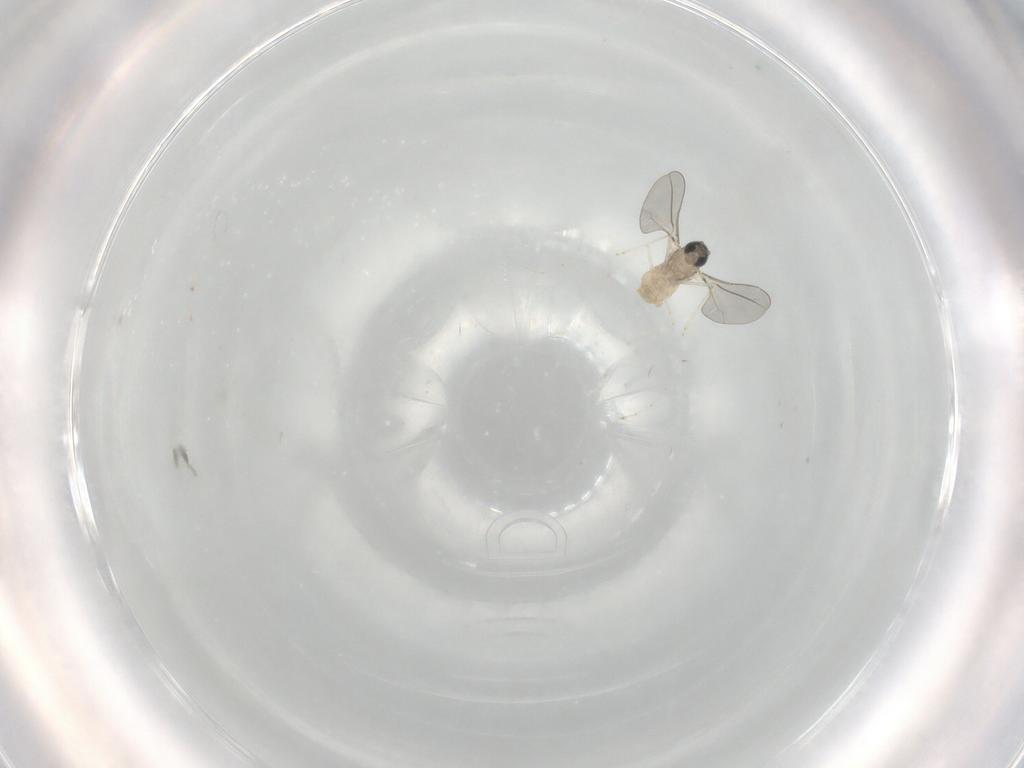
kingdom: Animalia
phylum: Arthropoda
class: Insecta
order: Diptera
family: Cecidomyiidae
